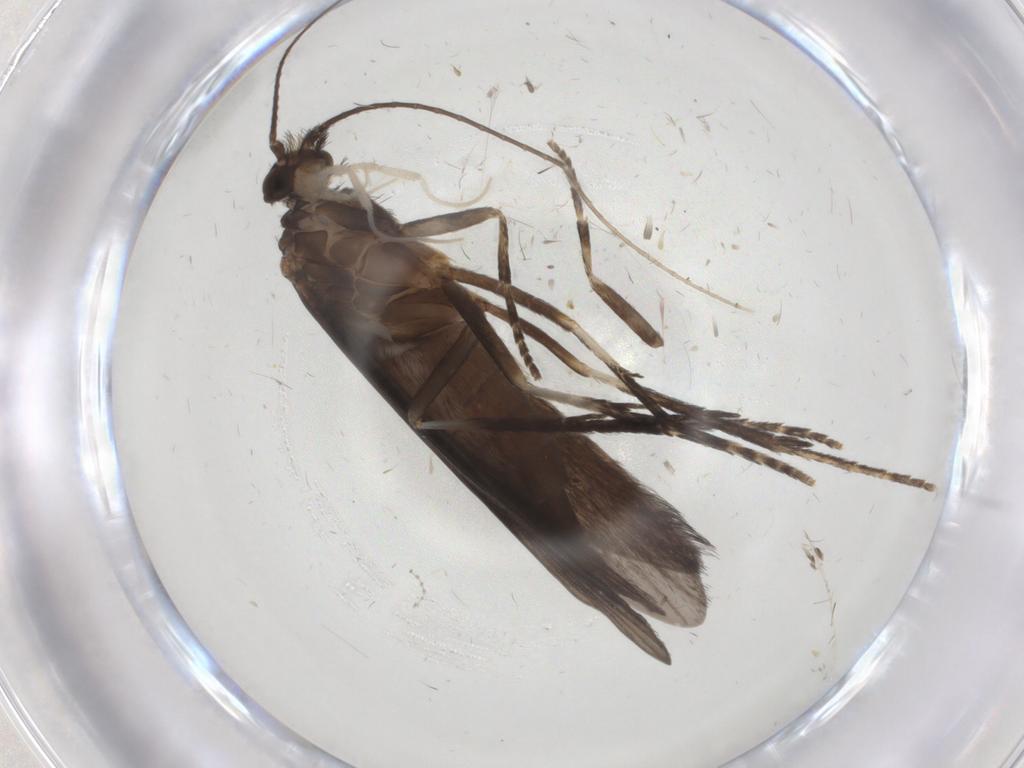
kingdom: Animalia
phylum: Arthropoda
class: Insecta
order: Trichoptera
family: Xiphocentronidae
